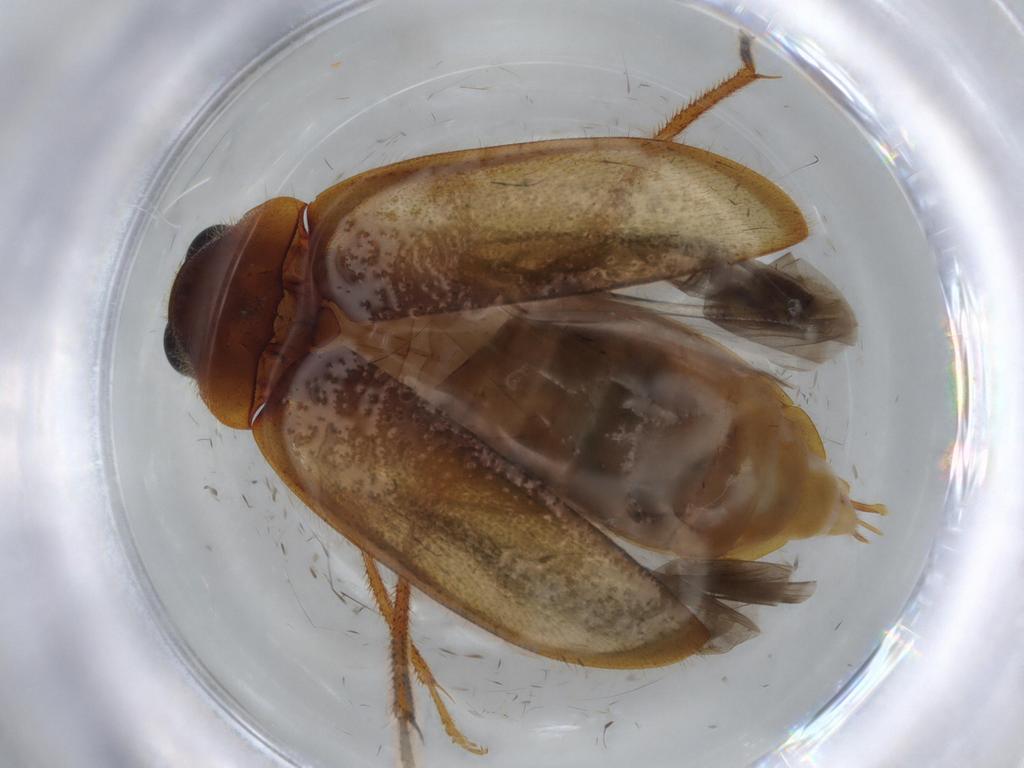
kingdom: Animalia
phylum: Arthropoda
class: Insecta
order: Coleoptera
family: Ptilodactylidae
